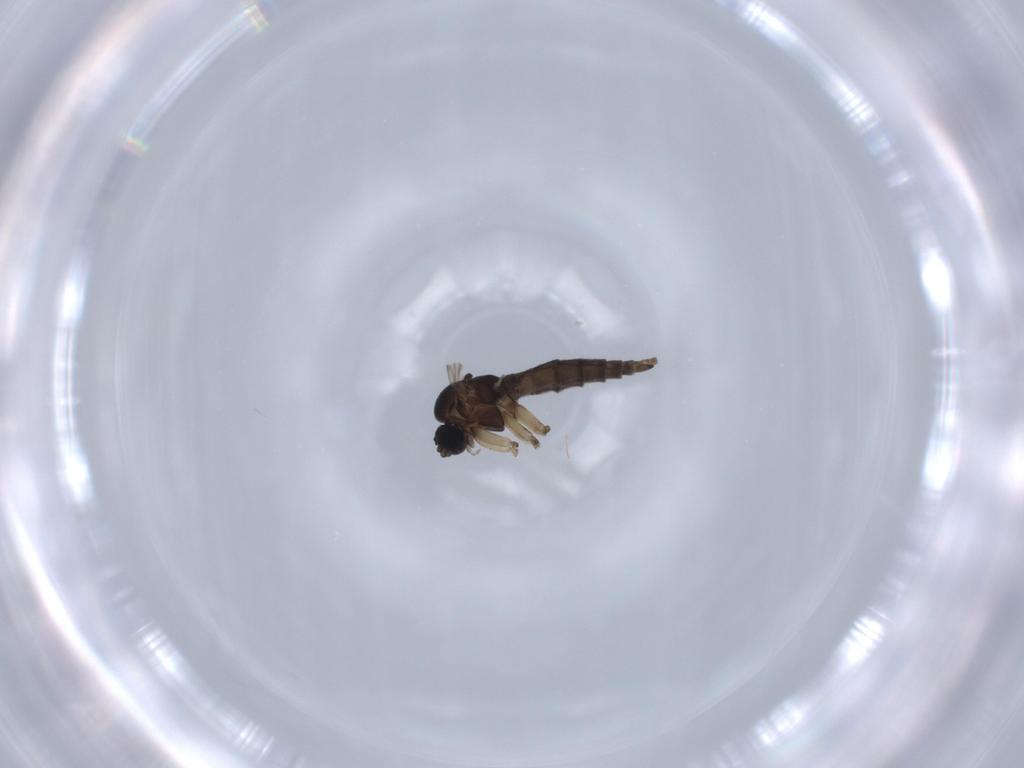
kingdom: Animalia
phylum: Arthropoda
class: Insecta
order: Diptera
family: Sciaridae
